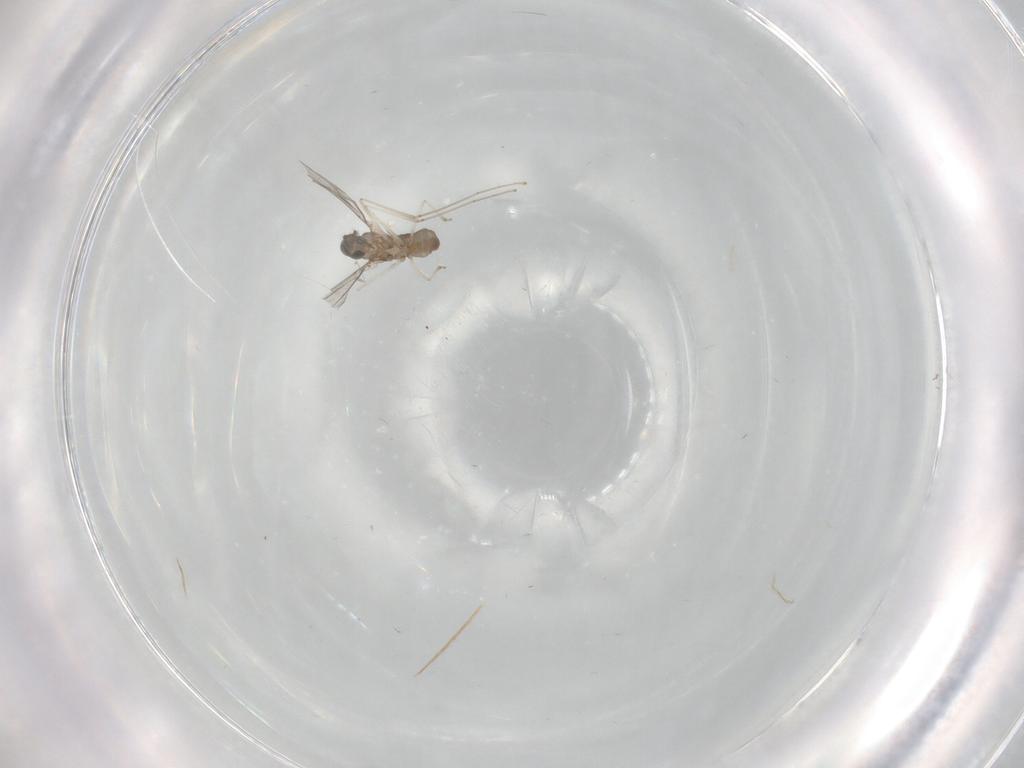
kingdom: Animalia
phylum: Arthropoda
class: Insecta
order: Diptera
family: Cecidomyiidae
